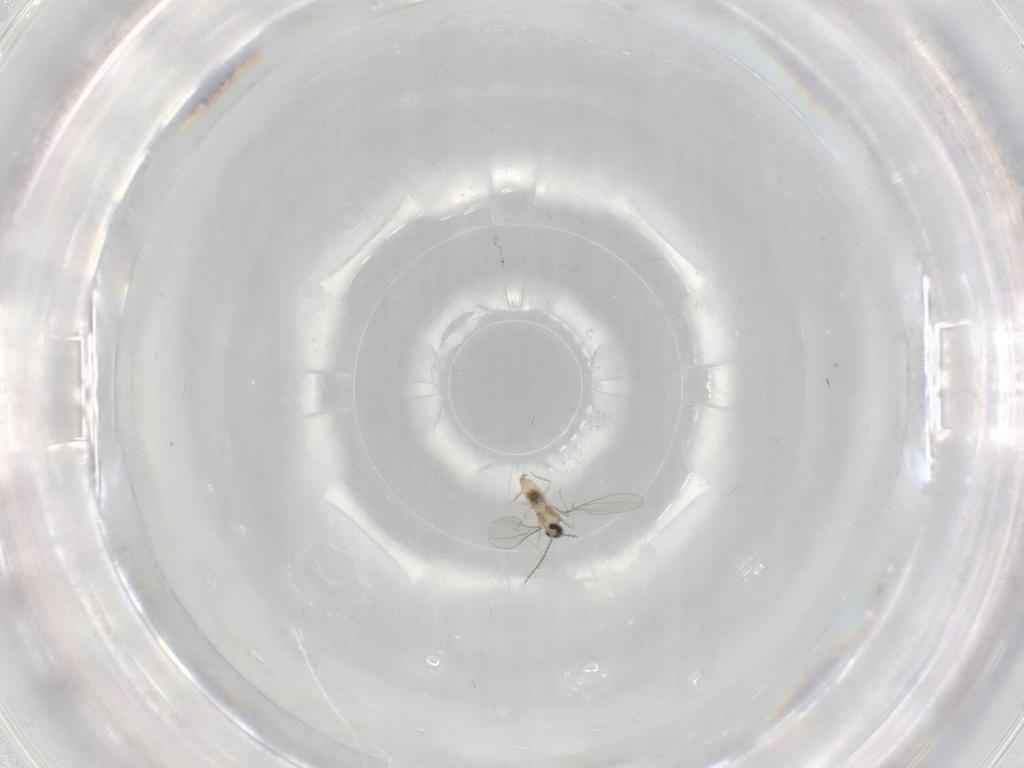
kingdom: Animalia
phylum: Arthropoda
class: Insecta
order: Diptera
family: Cecidomyiidae
